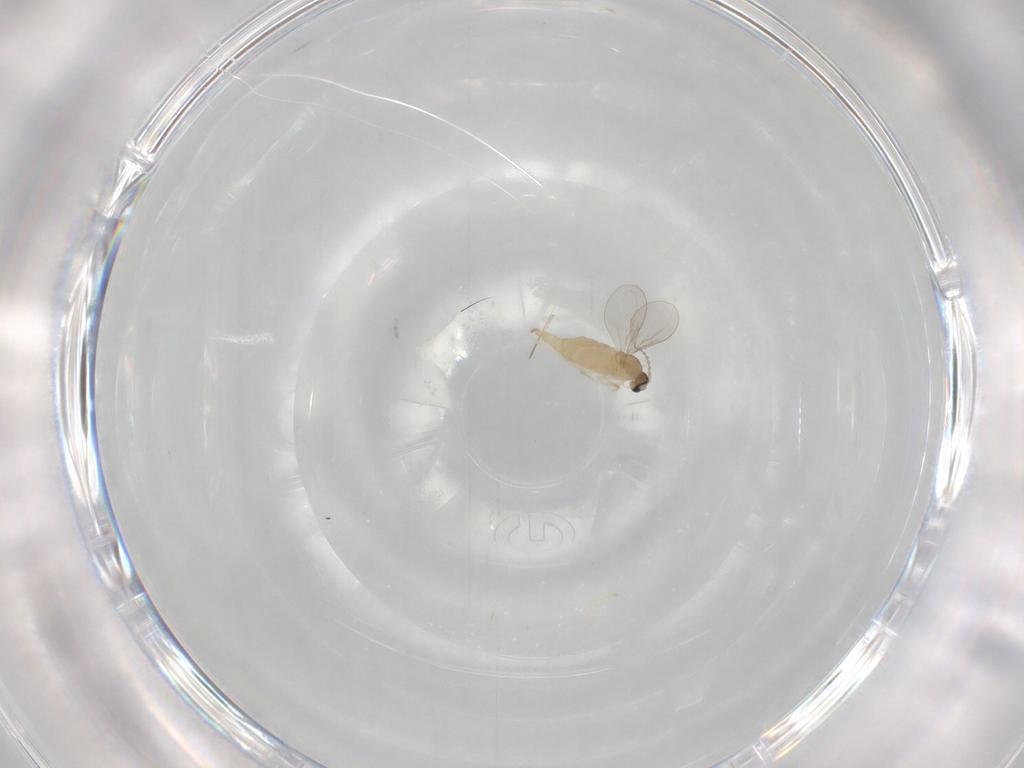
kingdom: Animalia
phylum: Arthropoda
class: Insecta
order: Diptera
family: Cecidomyiidae
